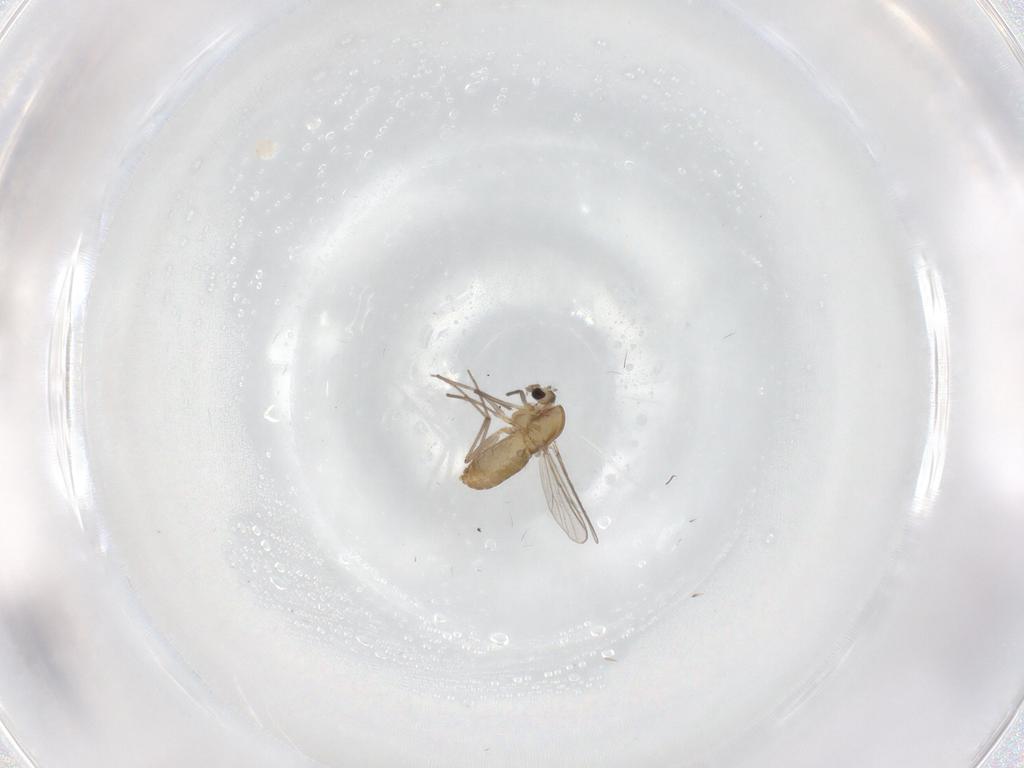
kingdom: Animalia
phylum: Arthropoda
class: Insecta
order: Diptera
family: Chironomidae
